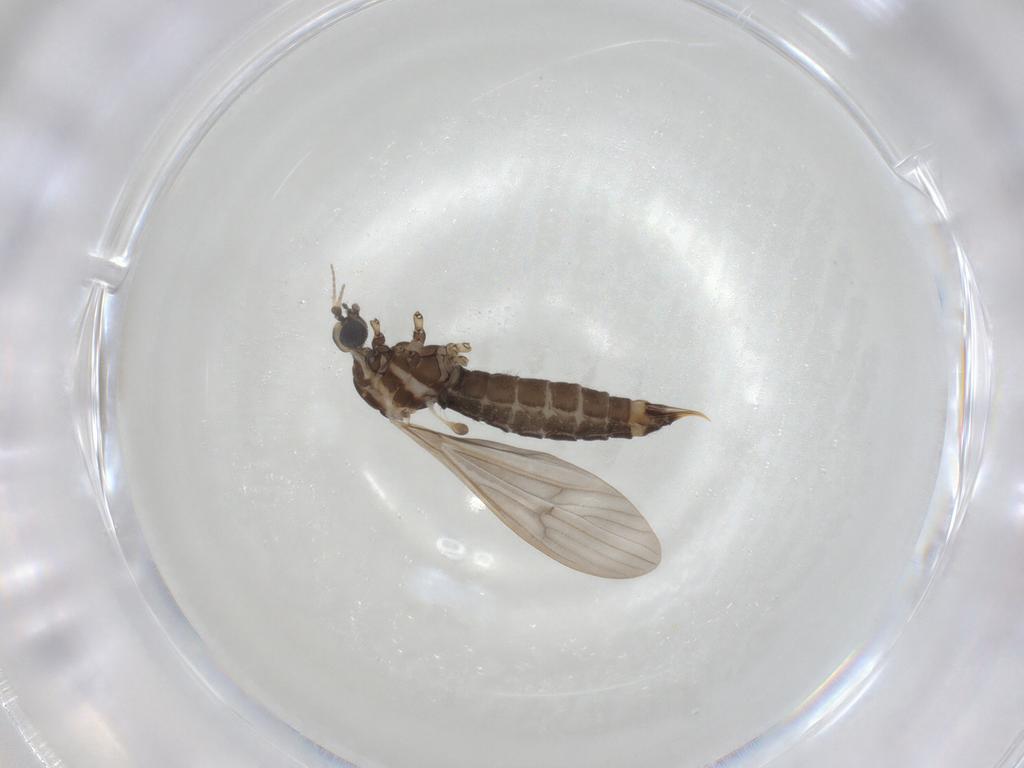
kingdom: Animalia
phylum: Arthropoda
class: Insecta
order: Diptera
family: Limoniidae
